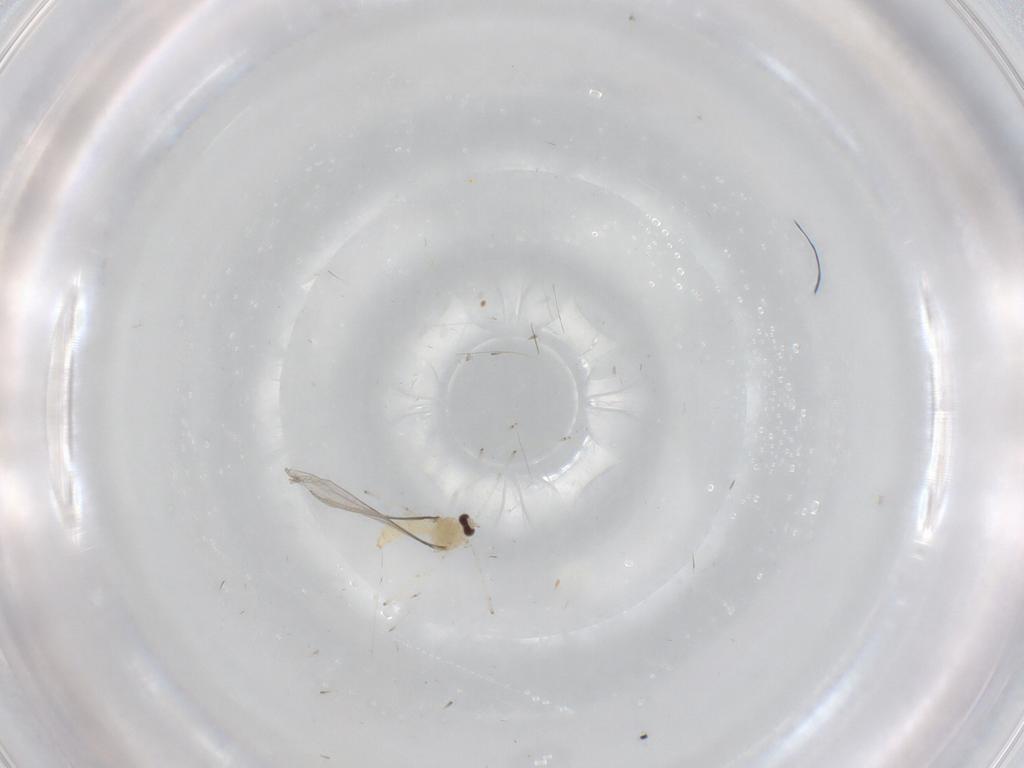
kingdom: Animalia
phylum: Arthropoda
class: Insecta
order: Diptera
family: Cecidomyiidae
